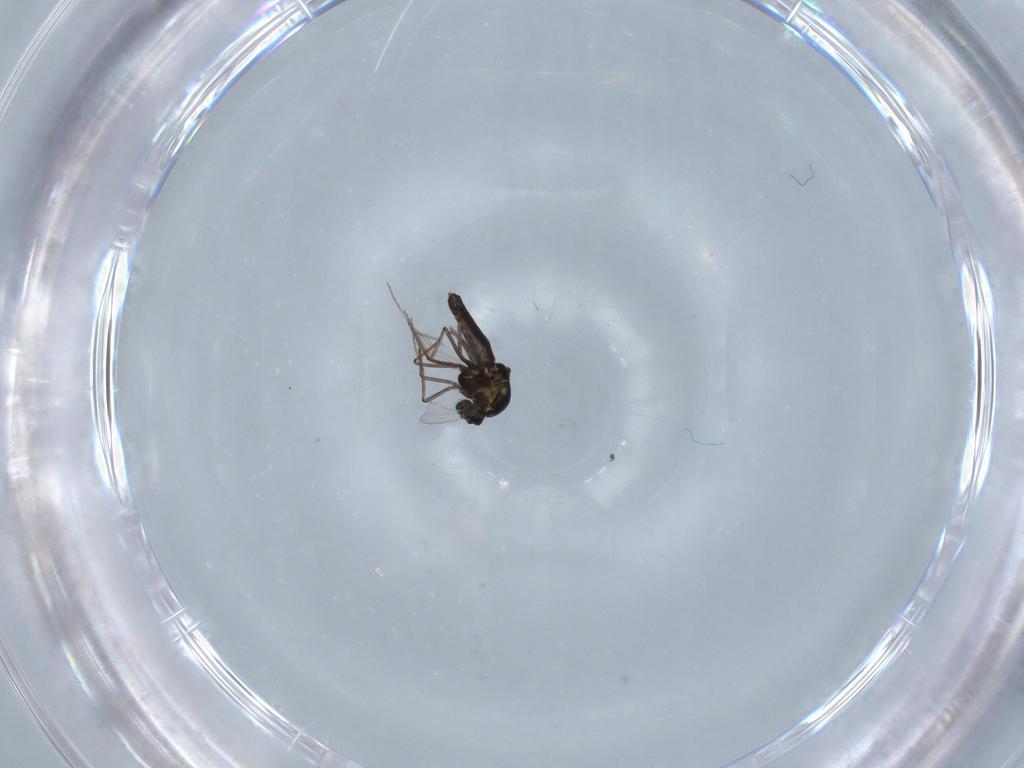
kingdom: Animalia
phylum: Arthropoda
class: Insecta
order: Diptera
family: Ceratopogonidae
